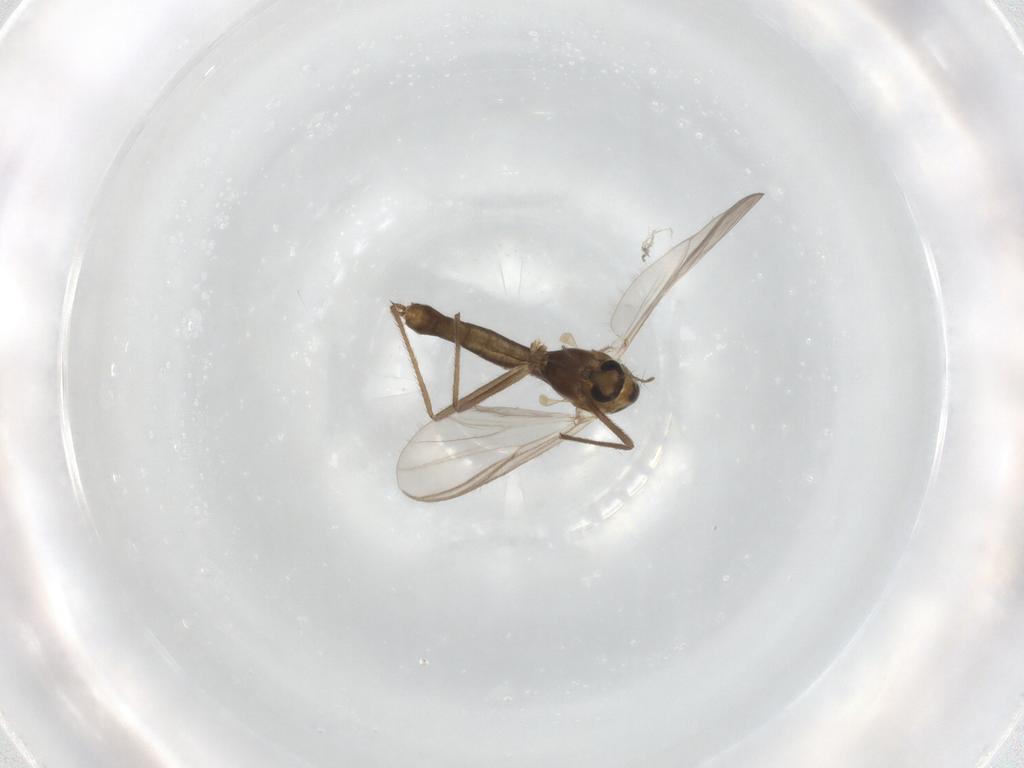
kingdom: Animalia
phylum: Arthropoda
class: Insecta
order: Diptera
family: Chironomidae
